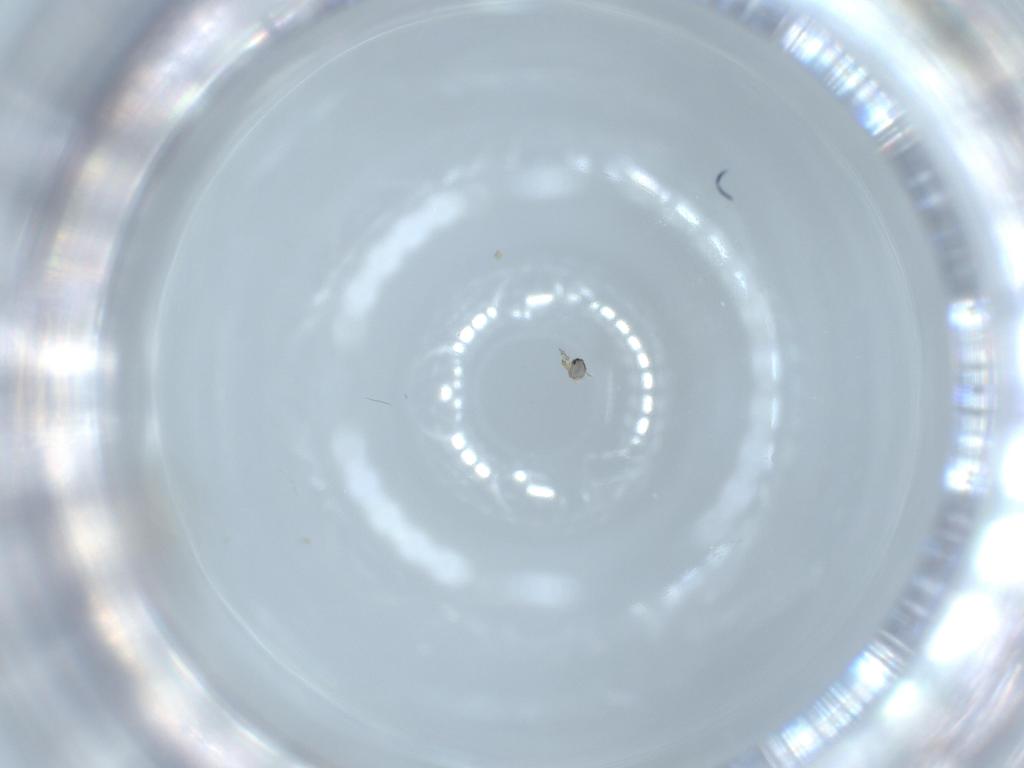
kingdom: Animalia
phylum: Arthropoda
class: Insecta
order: Diptera
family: Cecidomyiidae
